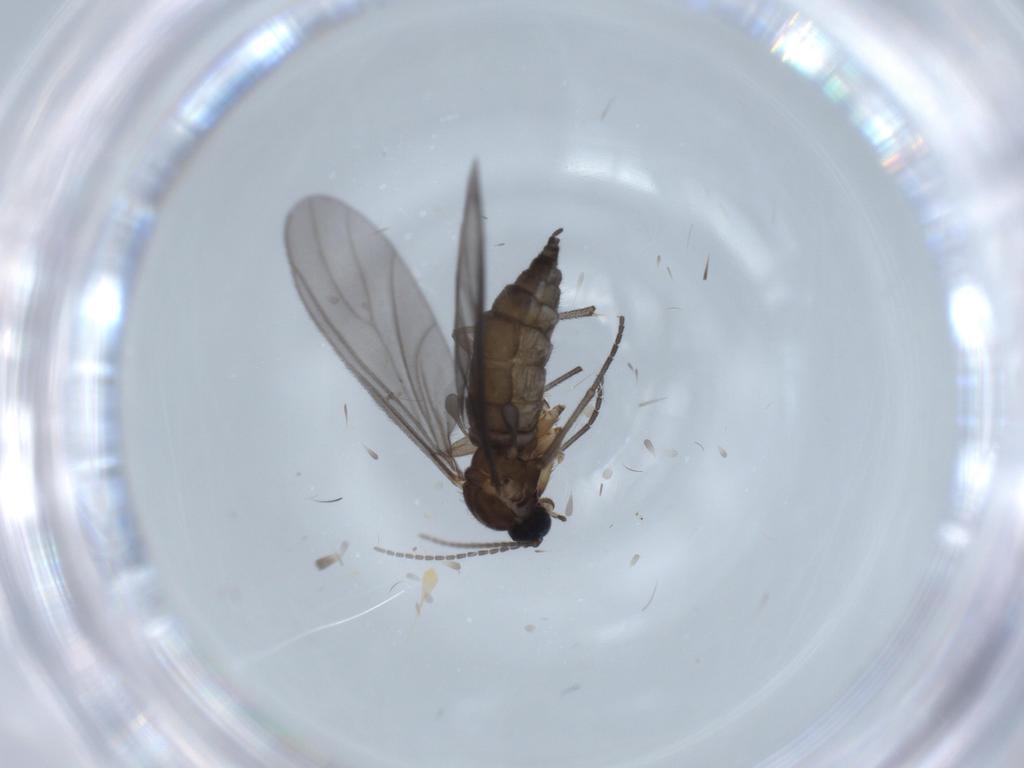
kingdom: Animalia
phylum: Arthropoda
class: Insecta
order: Diptera
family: Sciaridae
